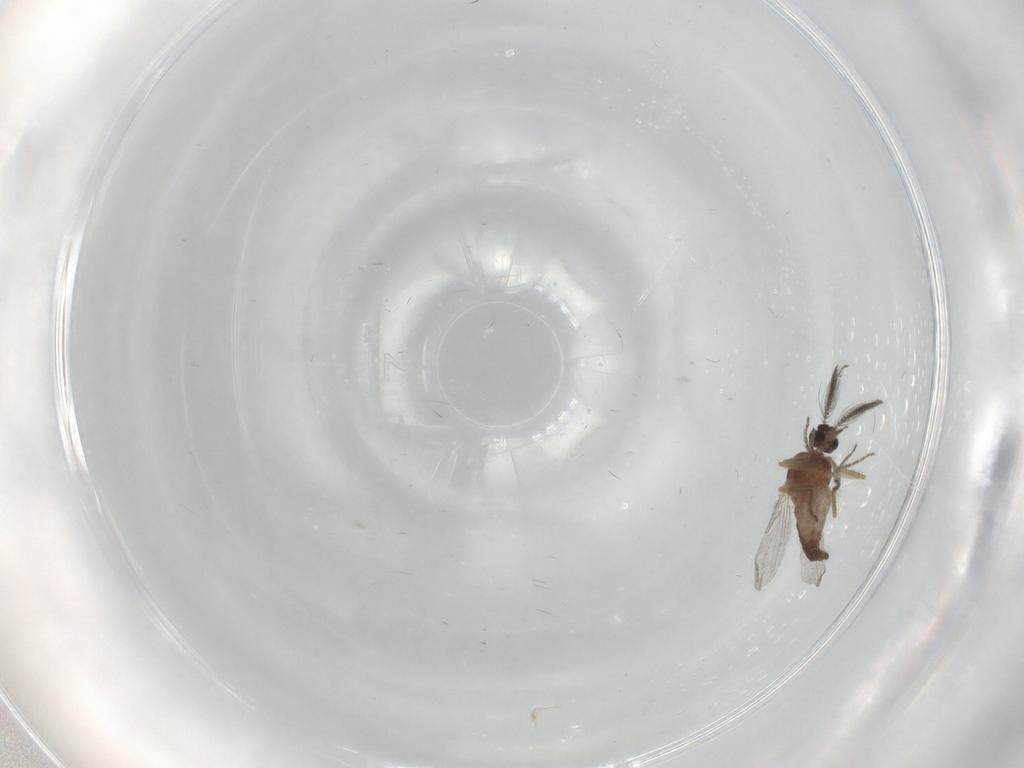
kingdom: Animalia
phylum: Arthropoda
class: Insecta
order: Diptera
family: Ceratopogonidae
